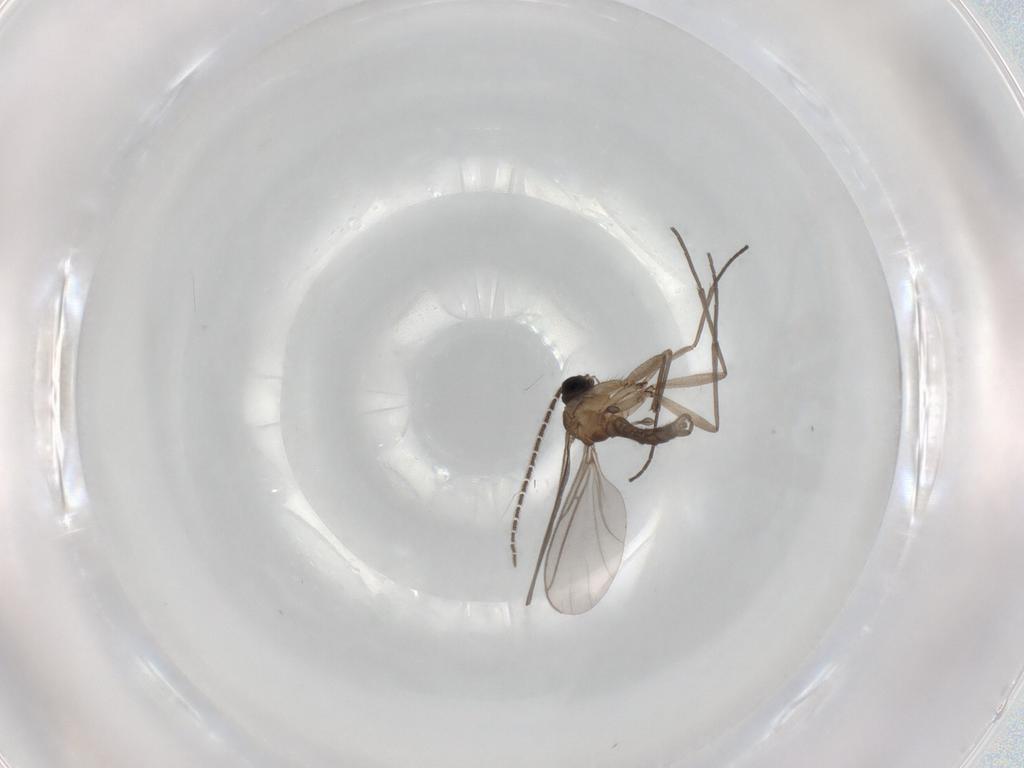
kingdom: Animalia
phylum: Arthropoda
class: Insecta
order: Diptera
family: Sciaridae
